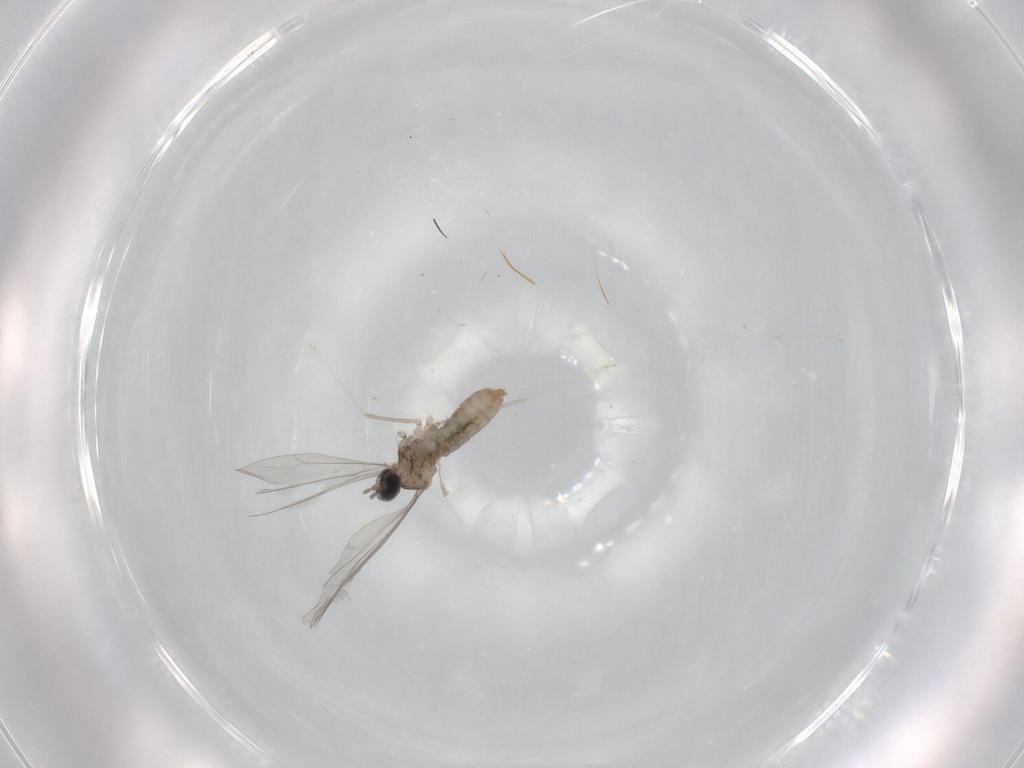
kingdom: Animalia
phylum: Arthropoda
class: Insecta
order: Diptera
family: Cecidomyiidae
